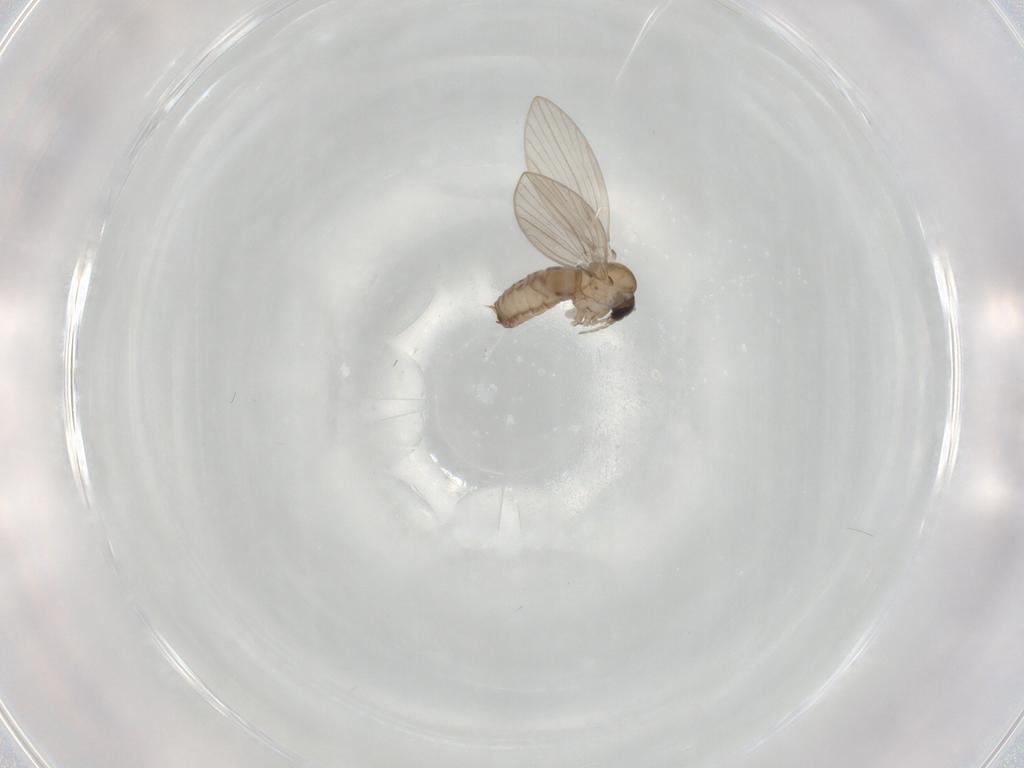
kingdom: Animalia
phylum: Arthropoda
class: Insecta
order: Diptera
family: Psychodidae
